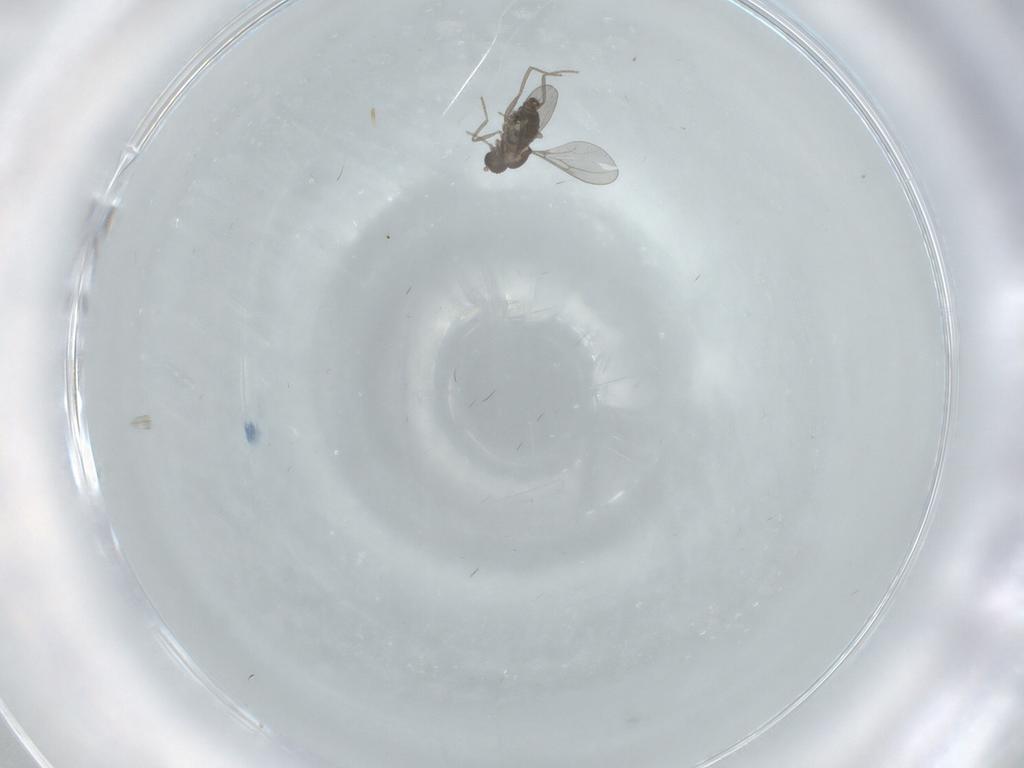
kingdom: Animalia
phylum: Arthropoda
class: Insecta
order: Diptera
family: Cecidomyiidae
